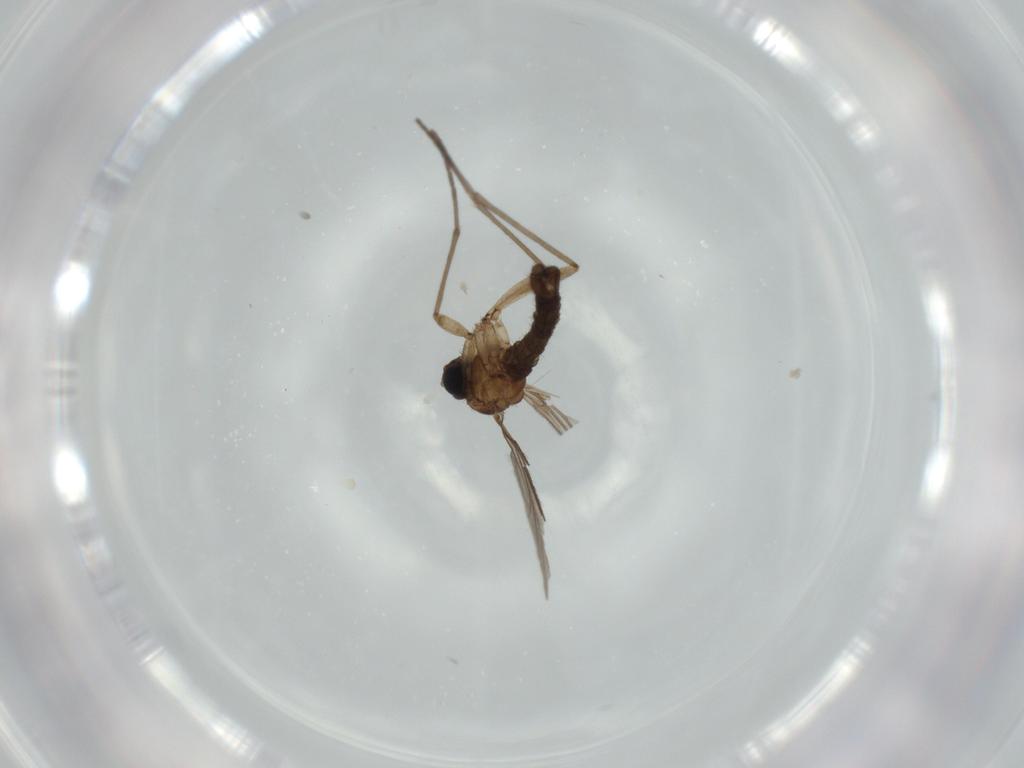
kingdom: Animalia
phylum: Arthropoda
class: Insecta
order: Diptera
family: Sciaridae
